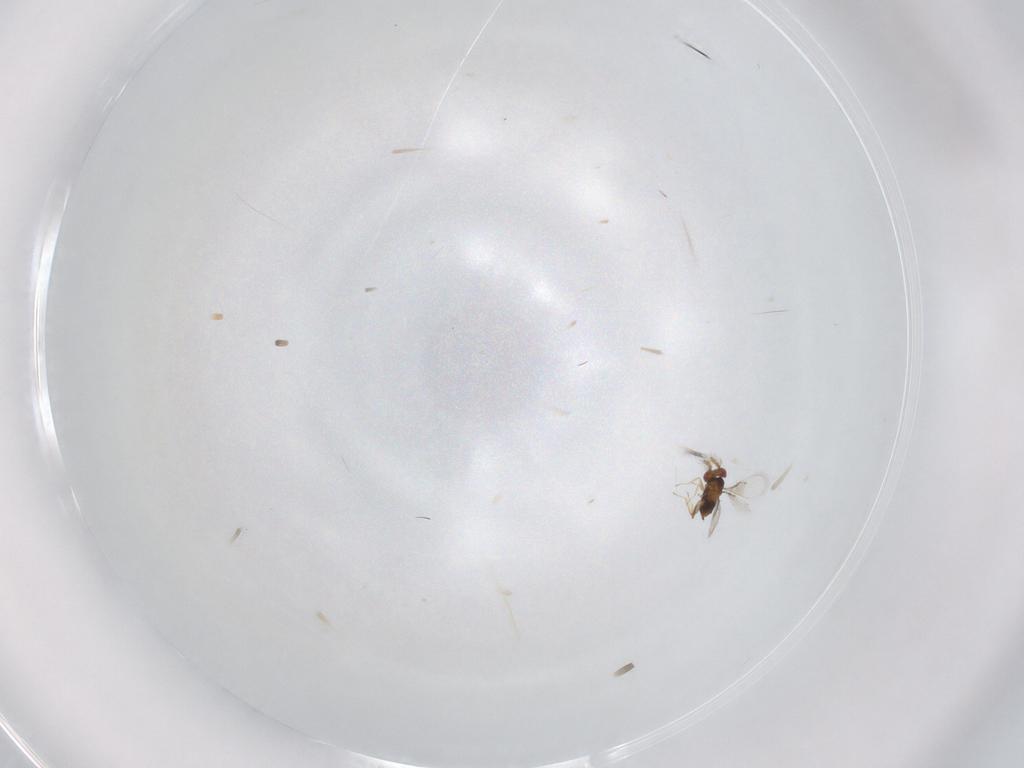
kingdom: Animalia
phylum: Arthropoda
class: Insecta
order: Hymenoptera
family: Trichogrammatidae
